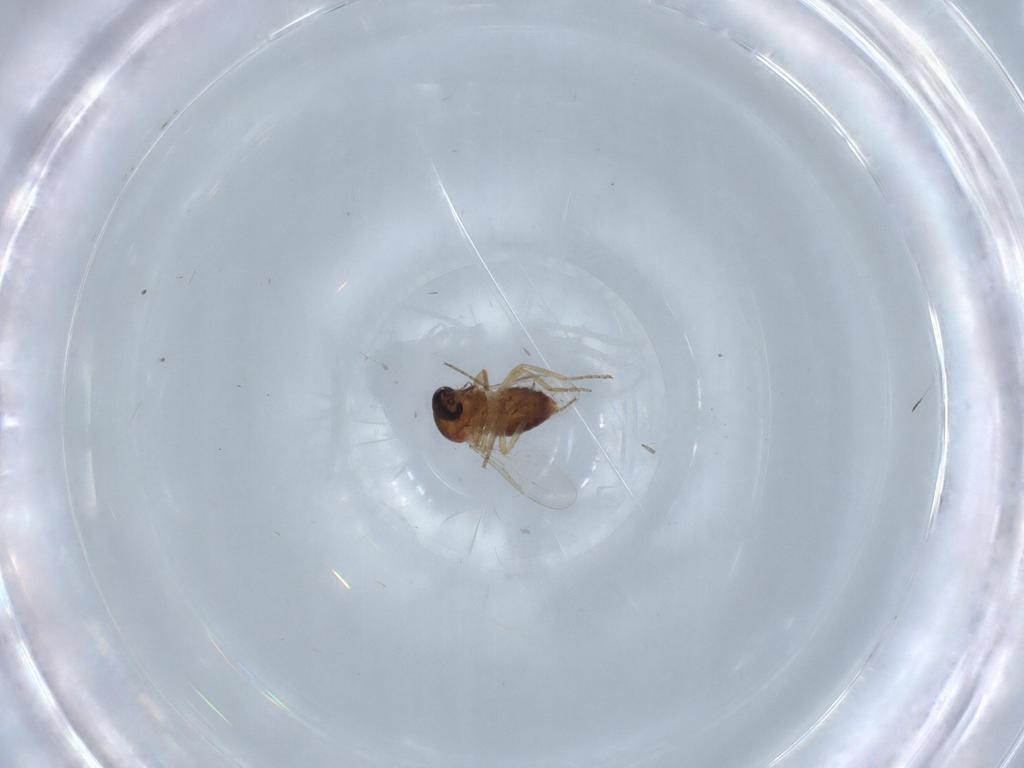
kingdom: Animalia
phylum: Arthropoda
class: Insecta
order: Diptera
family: Ceratopogonidae
